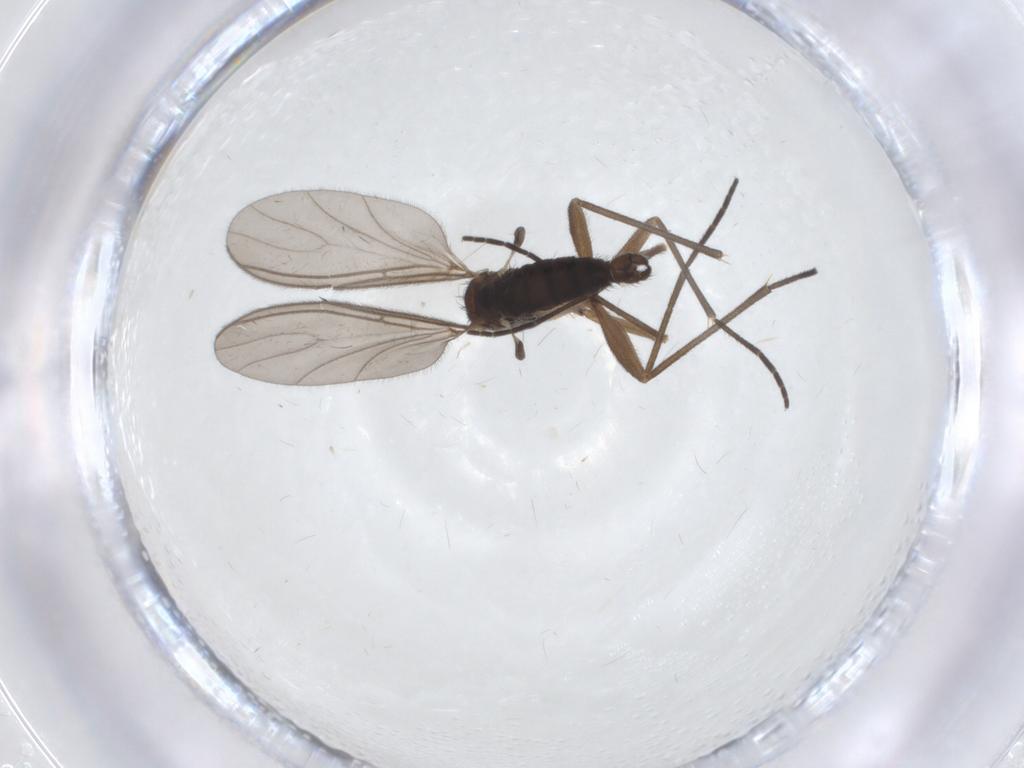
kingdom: Animalia
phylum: Arthropoda
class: Insecta
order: Diptera
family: Sciaridae
